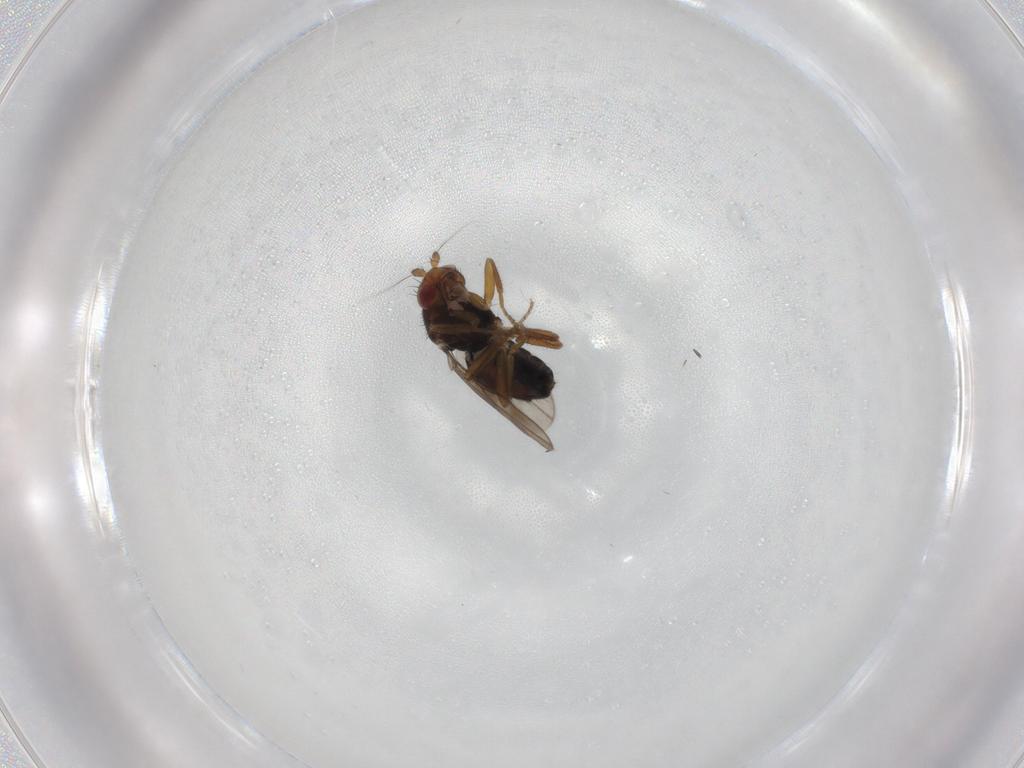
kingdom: Animalia
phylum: Arthropoda
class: Insecta
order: Diptera
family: Sphaeroceridae
